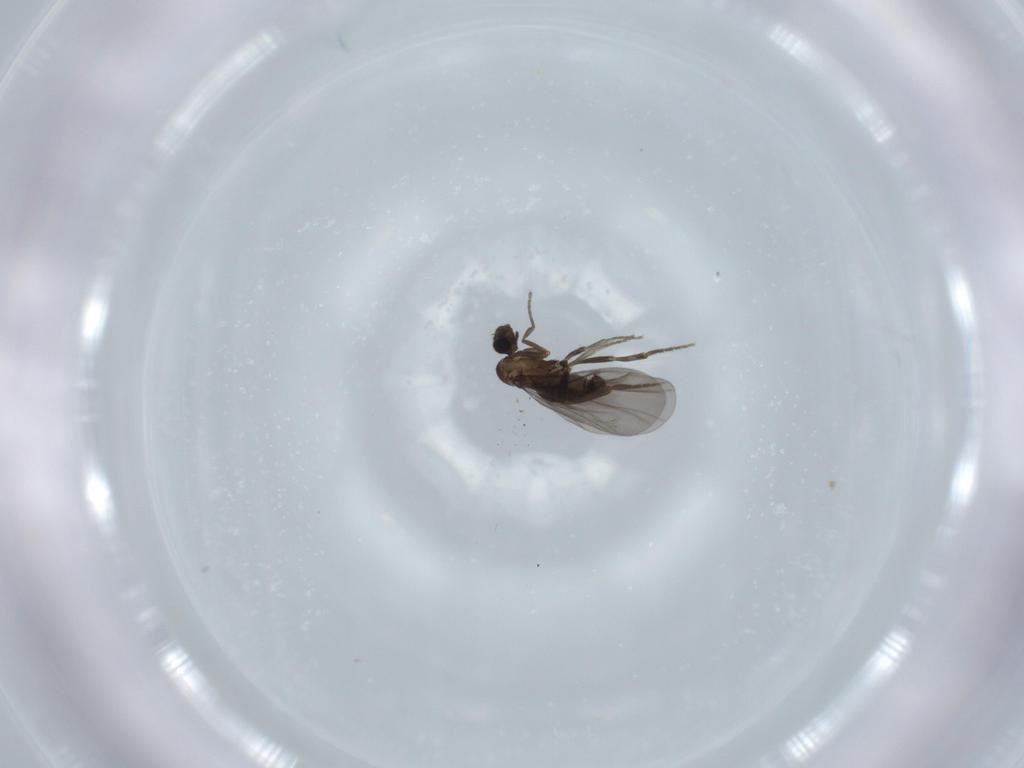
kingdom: Animalia
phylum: Arthropoda
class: Insecta
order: Diptera
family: Phoridae
